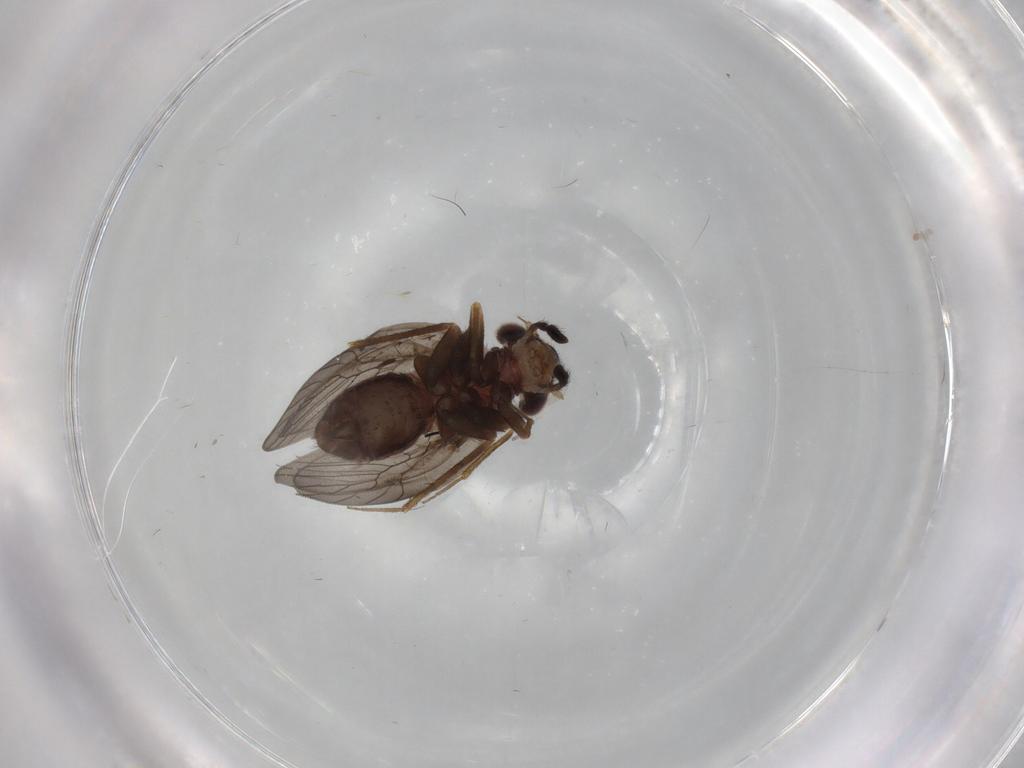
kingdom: Animalia
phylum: Arthropoda
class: Insecta
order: Psocodea
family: Lepidopsocidae
